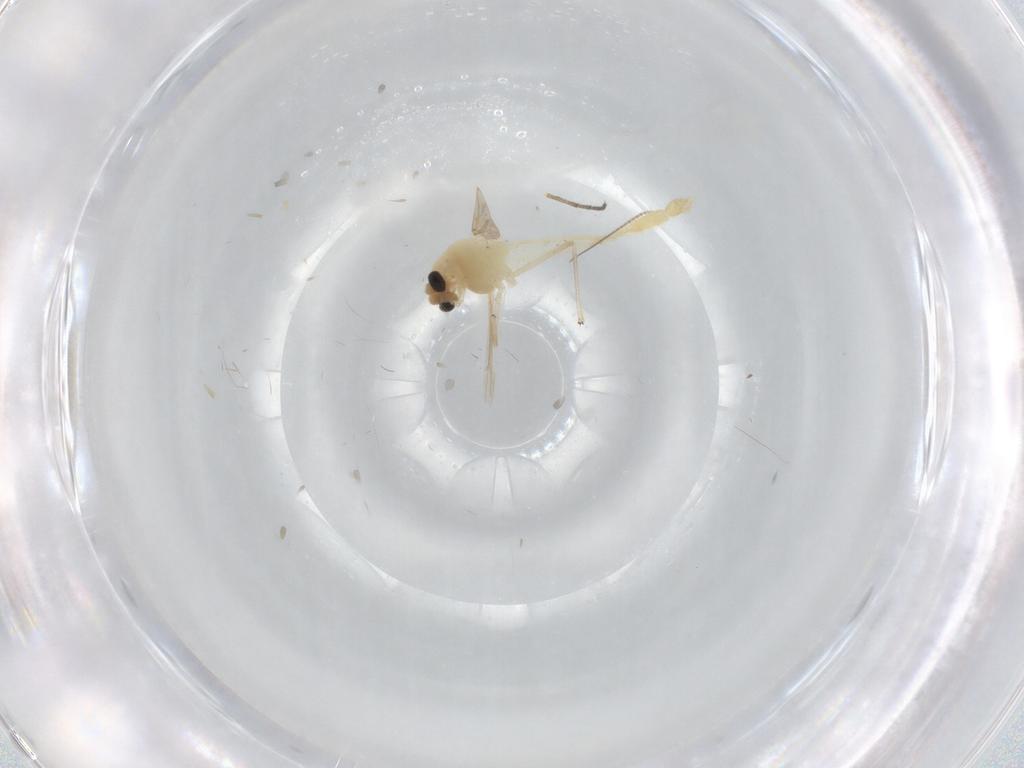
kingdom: Animalia
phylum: Arthropoda
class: Insecta
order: Diptera
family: Chironomidae
